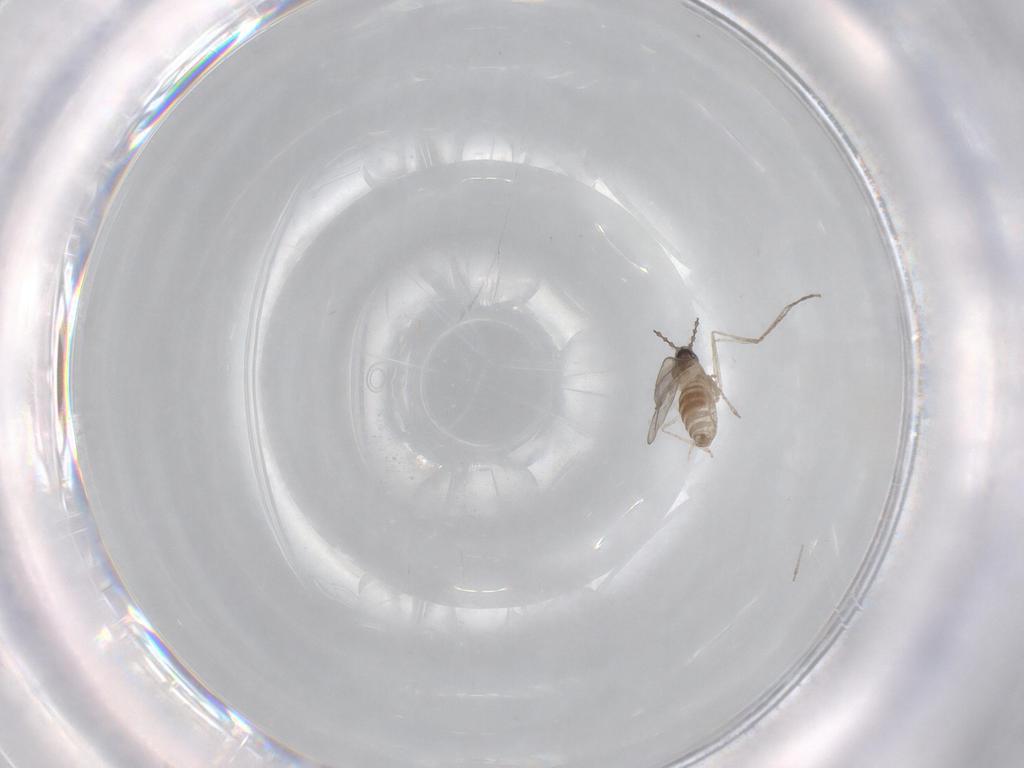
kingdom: Animalia
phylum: Arthropoda
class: Insecta
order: Diptera
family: Cecidomyiidae
